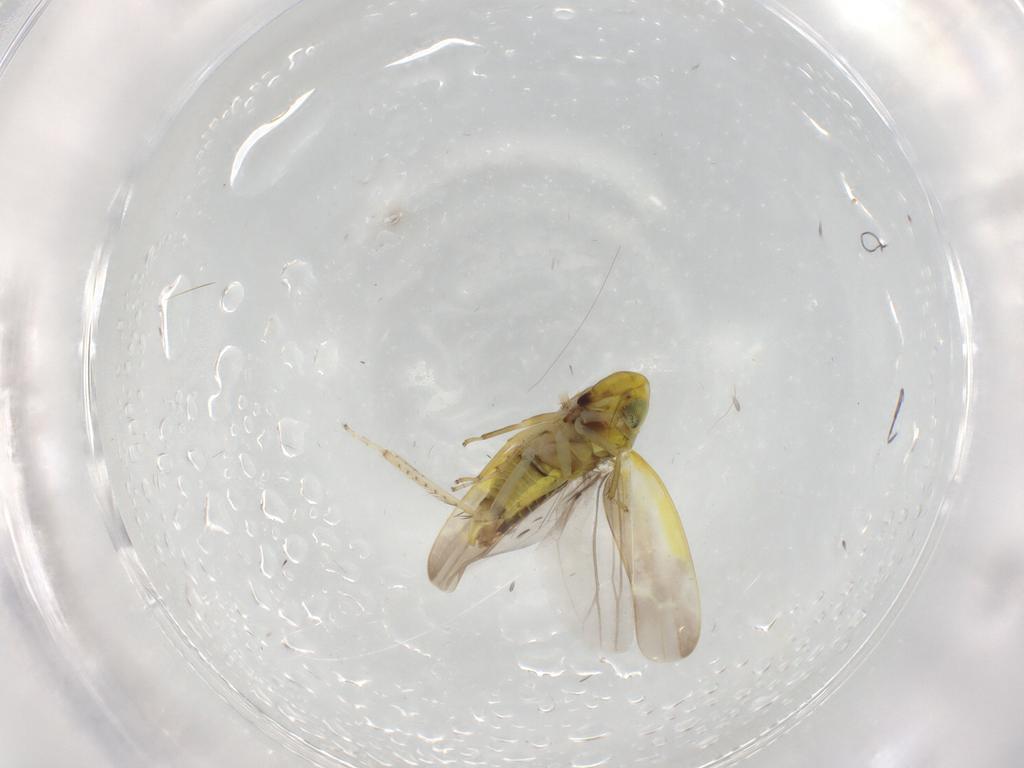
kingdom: Animalia
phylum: Arthropoda
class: Insecta
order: Hemiptera
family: Cicadellidae
